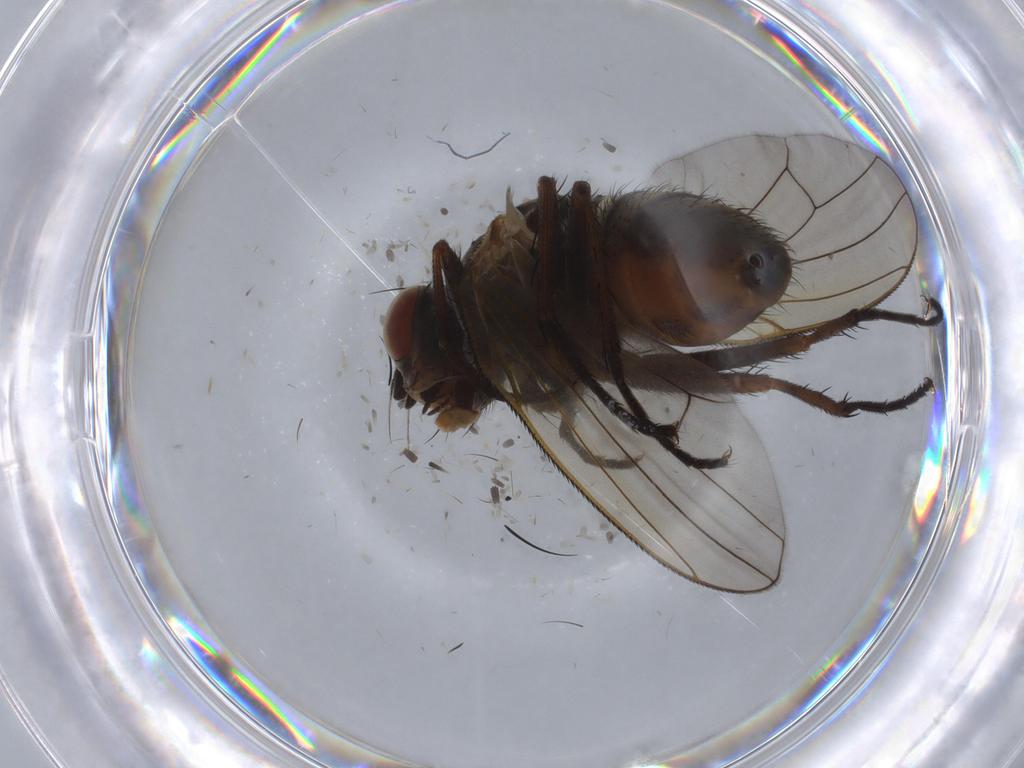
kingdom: Animalia
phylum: Arthropoda
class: Insecta
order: Diptera
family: Anthomyiidae
